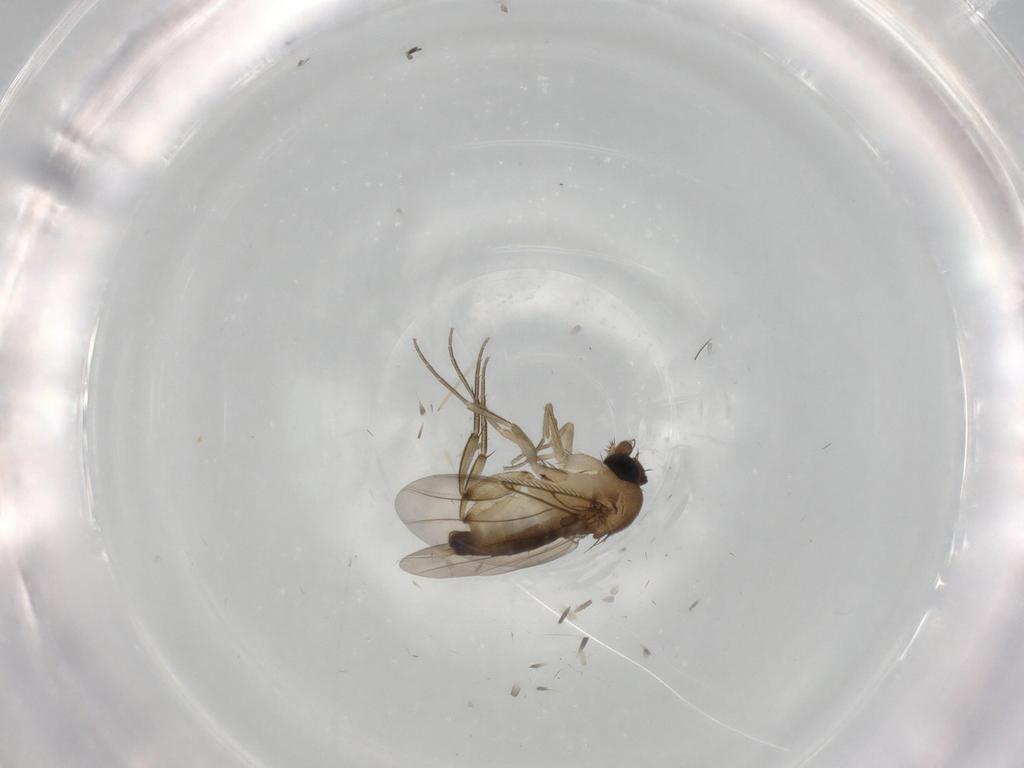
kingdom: Animalia
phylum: Arthropoda
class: Insecta
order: Diptera
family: Phoridae
